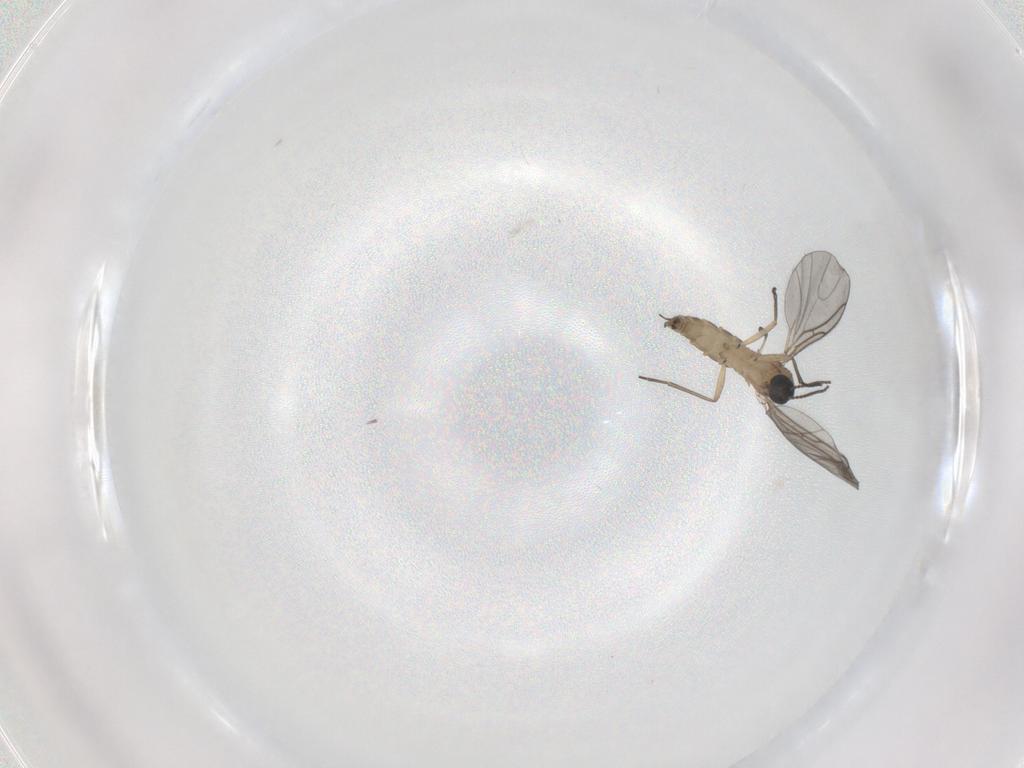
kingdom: Animalia
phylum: Arthropoda
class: Insecta
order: Diptera
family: Sciaridae
